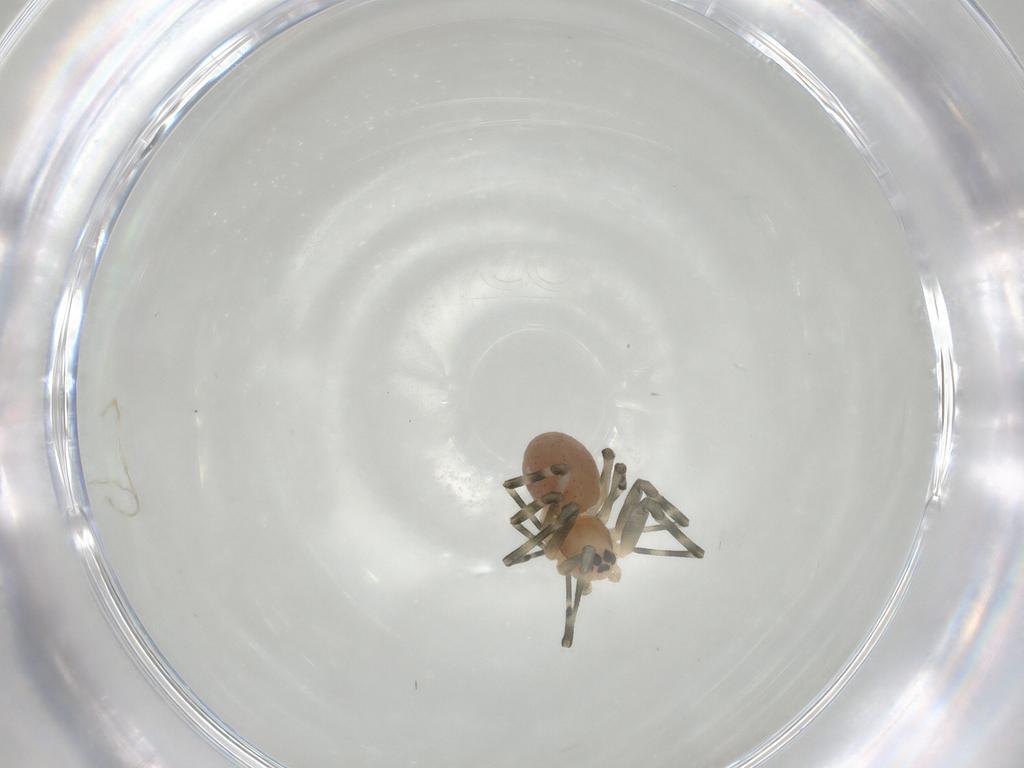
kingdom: Animalia
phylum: Arthropoda
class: Arachnida
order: Araneae
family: Linyphiidae
